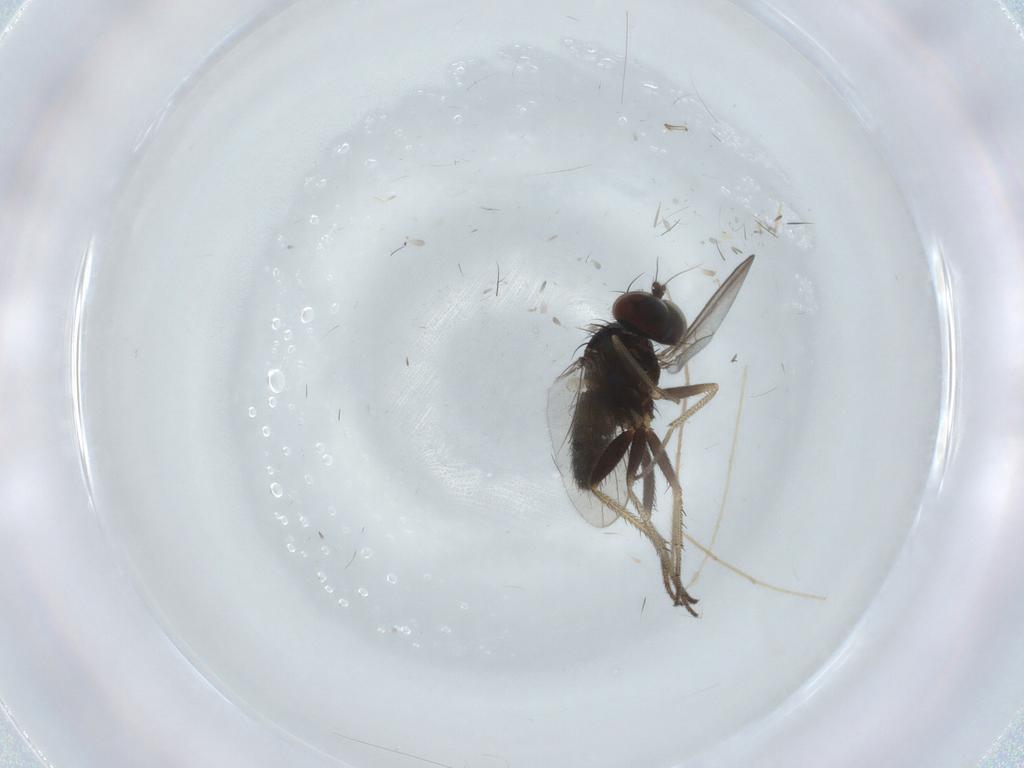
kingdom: Animalia
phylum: Arthropoda
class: Insecta
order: Diptera
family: Chironomidae
